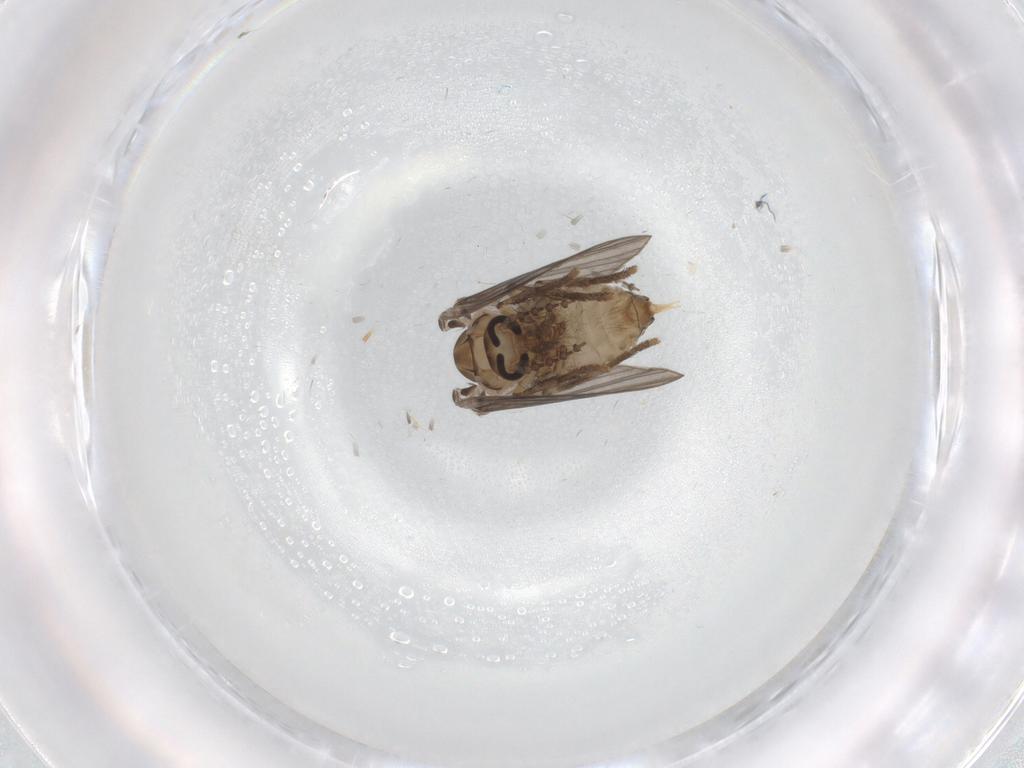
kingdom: Animalia
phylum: Arthropoda
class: Insecta
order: Diptera
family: Psychodidae
